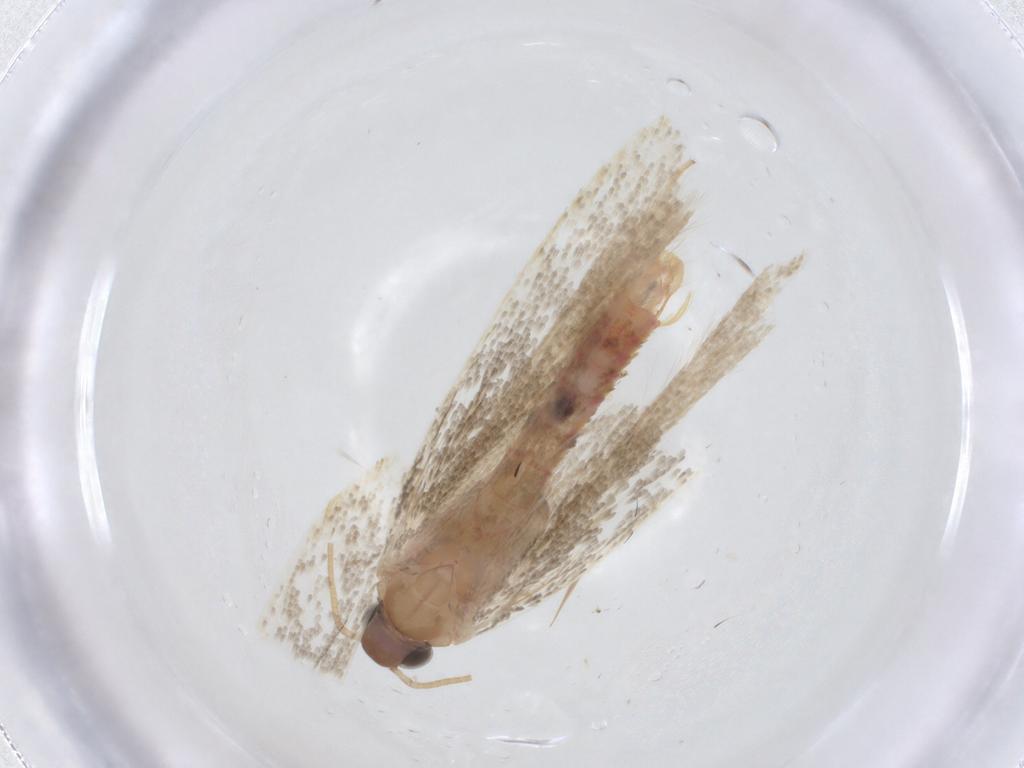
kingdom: Animalia
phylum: Arthropoda
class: Insecta
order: Lepidoptera
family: Crambidae
